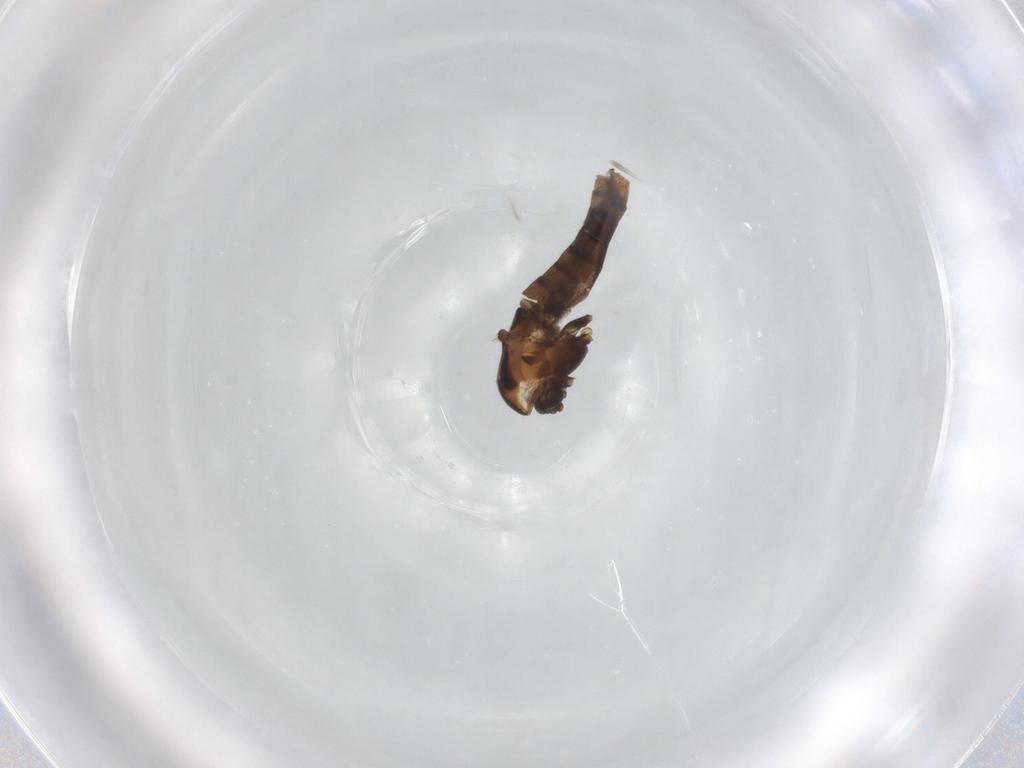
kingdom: Animalia
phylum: Arthropoda
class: Insecta
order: Diptera
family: Chironomidae
